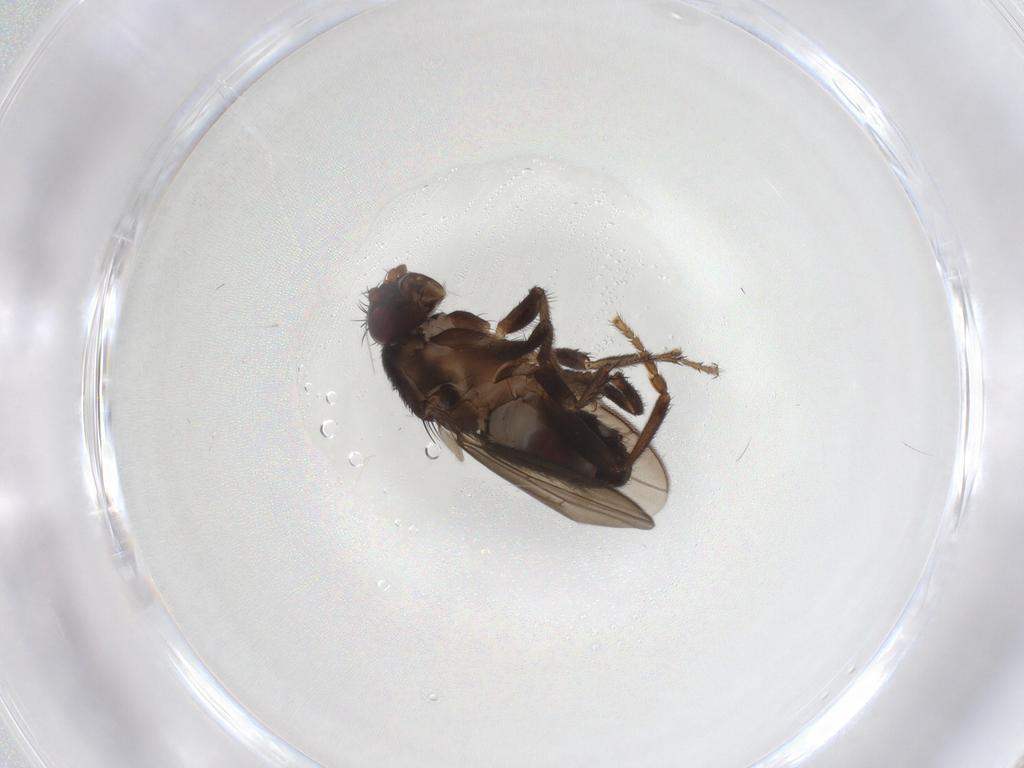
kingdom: Animalia
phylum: Arthropoda
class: Insecta
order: Diptera
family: Sphaeroceridae
